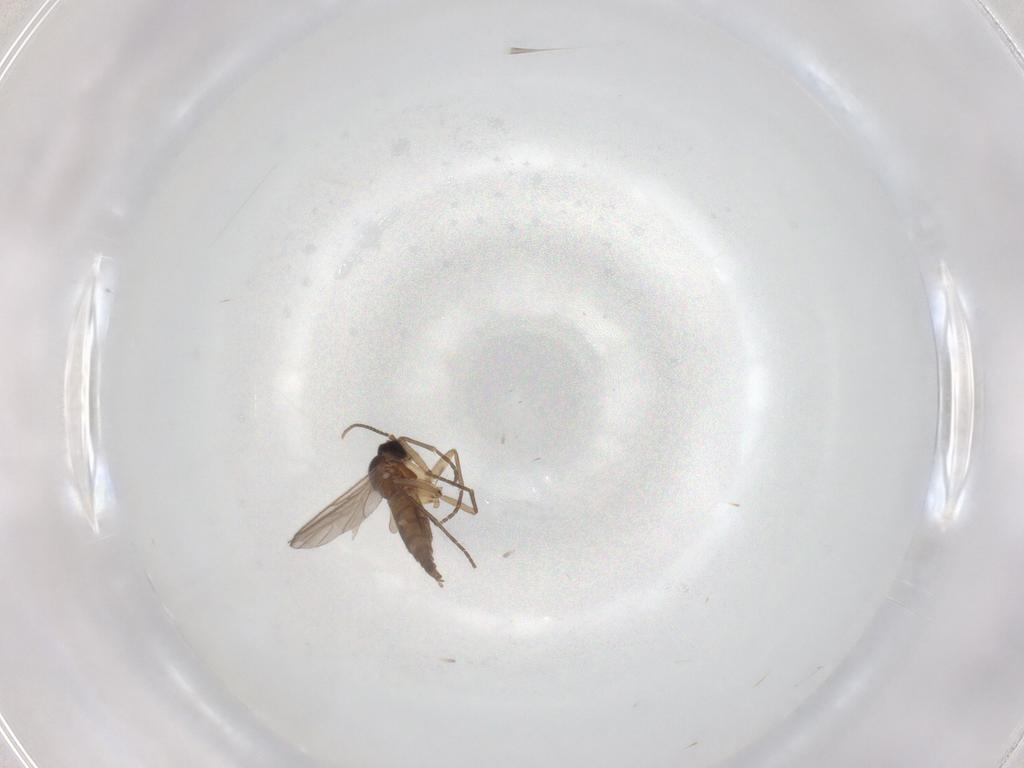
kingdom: Animalia
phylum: Arthropoda
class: Insecta
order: Diptera
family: Sciaridae
